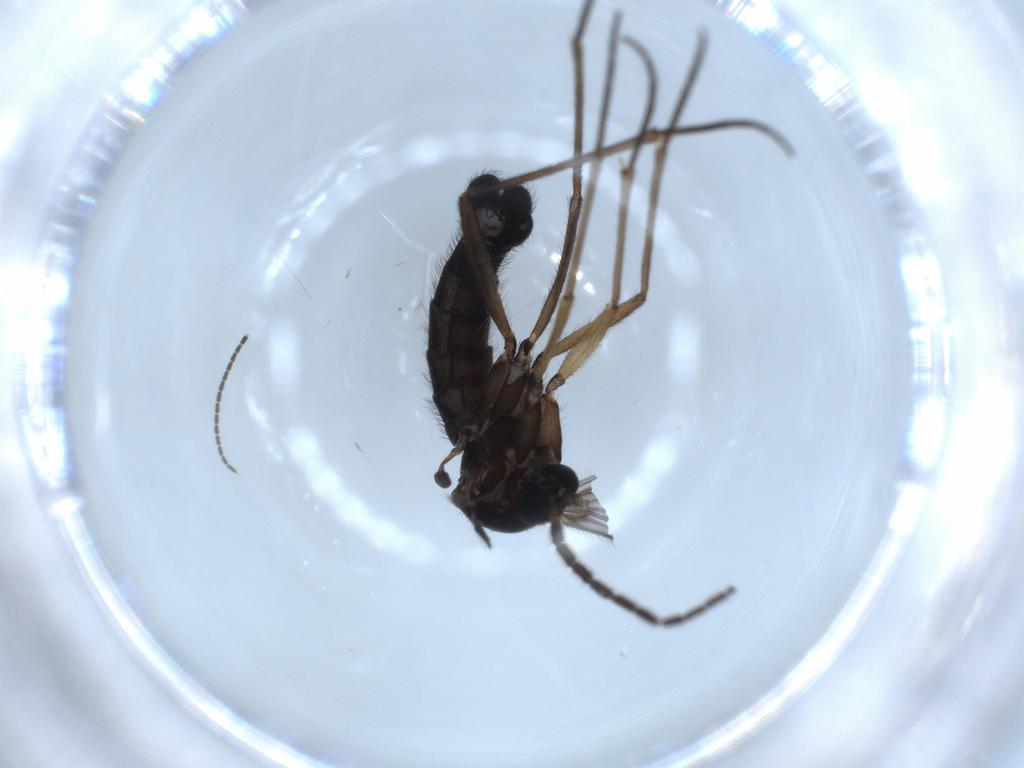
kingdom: Animalia
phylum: Arthropoda
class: Insecta
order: Diptera
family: Sciaridae
